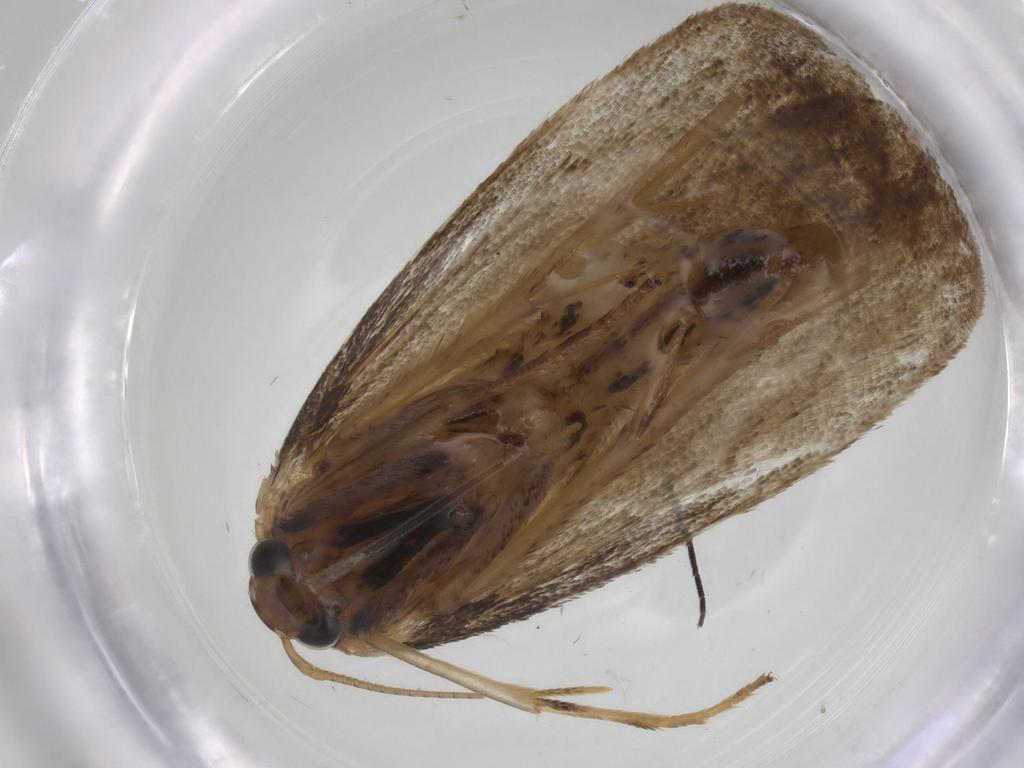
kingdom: Animalia
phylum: Arthropoda
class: Insecta
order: Lepidoptera
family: Depressariidae
